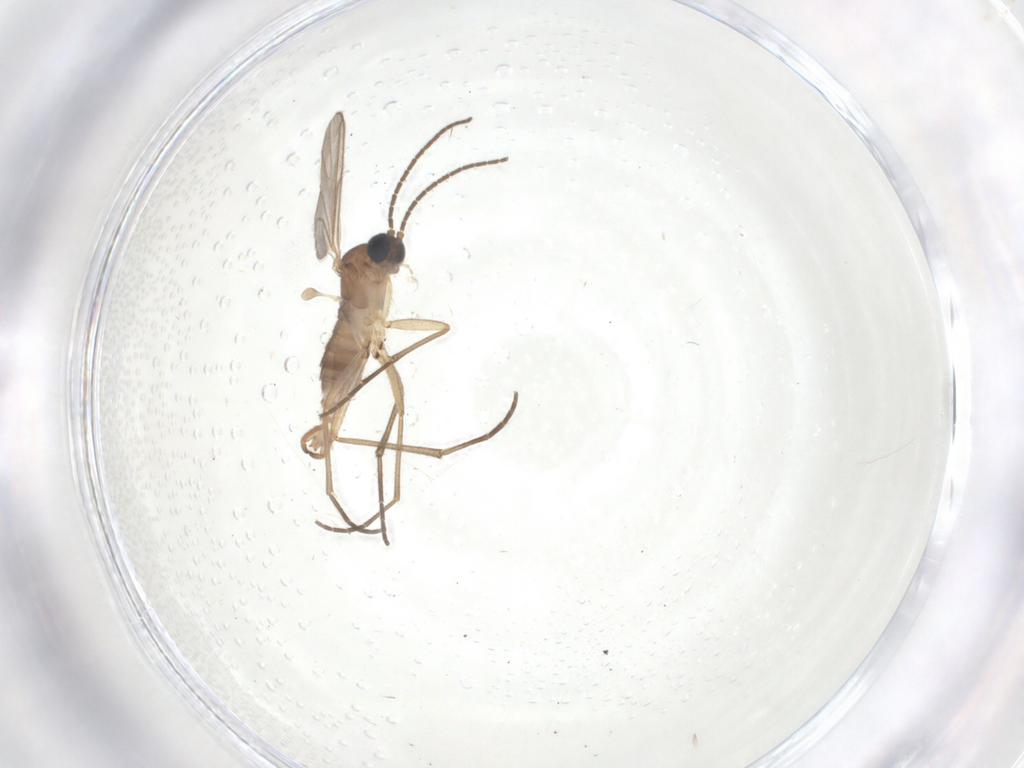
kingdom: Animalia
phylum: Arthropoda
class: Insecta
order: Diptera
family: Sciaridae
